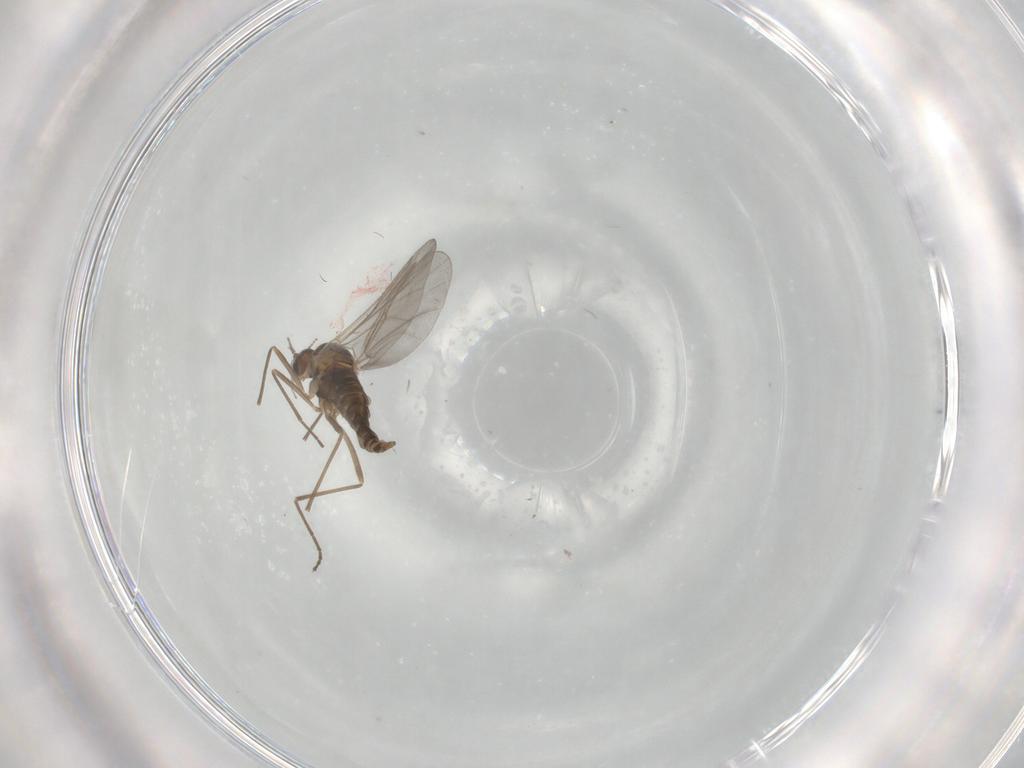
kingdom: Animalia
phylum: Arthropoda
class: Insecta
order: Diptera
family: Cecidomyiidae
